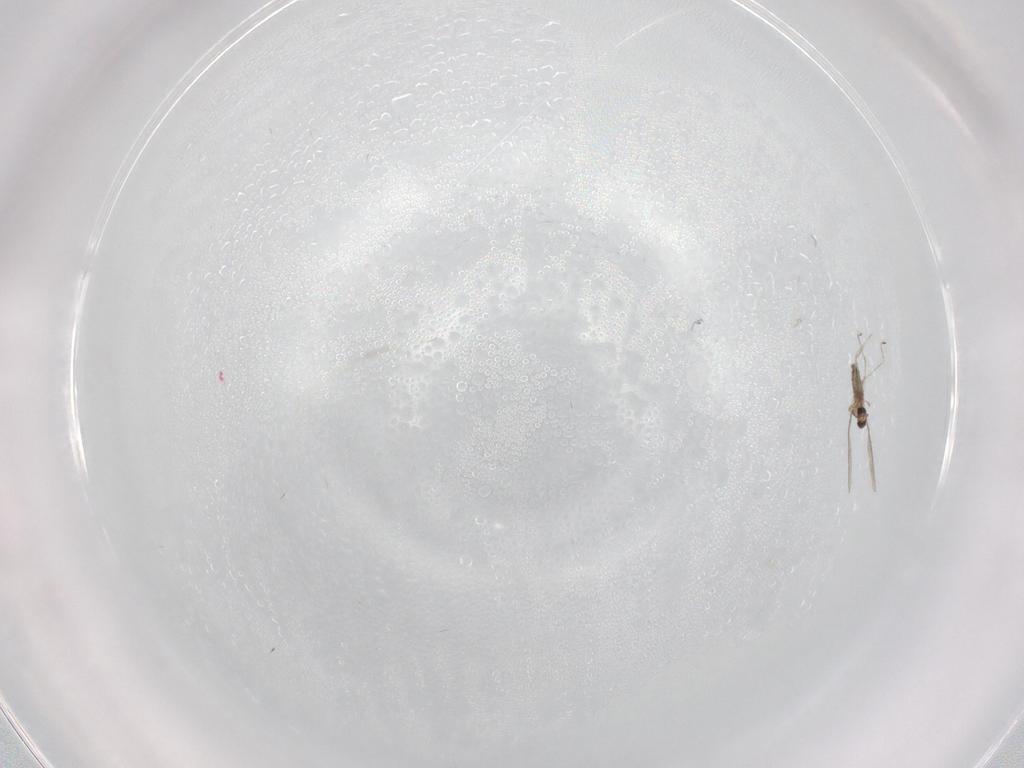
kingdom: Animalia
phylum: Arthropoda
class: Insecta
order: Diptera
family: Cecidomyiidae
